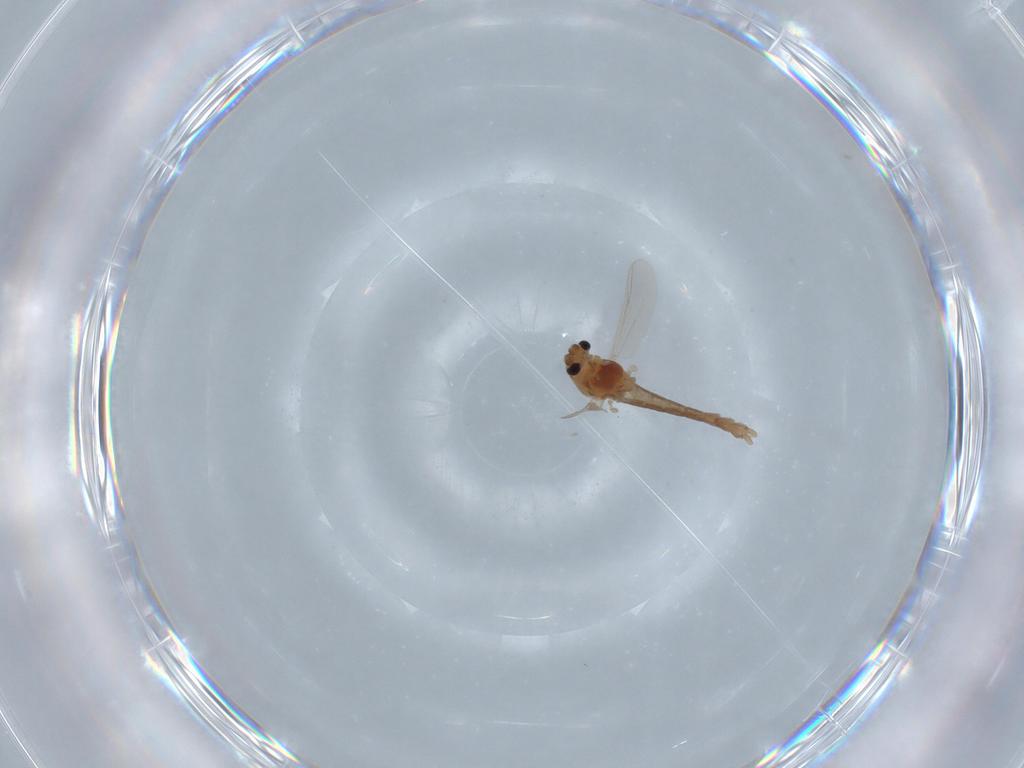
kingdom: Animalia
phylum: Arthropoda
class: Insecta
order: Diptera
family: Chironomidae
